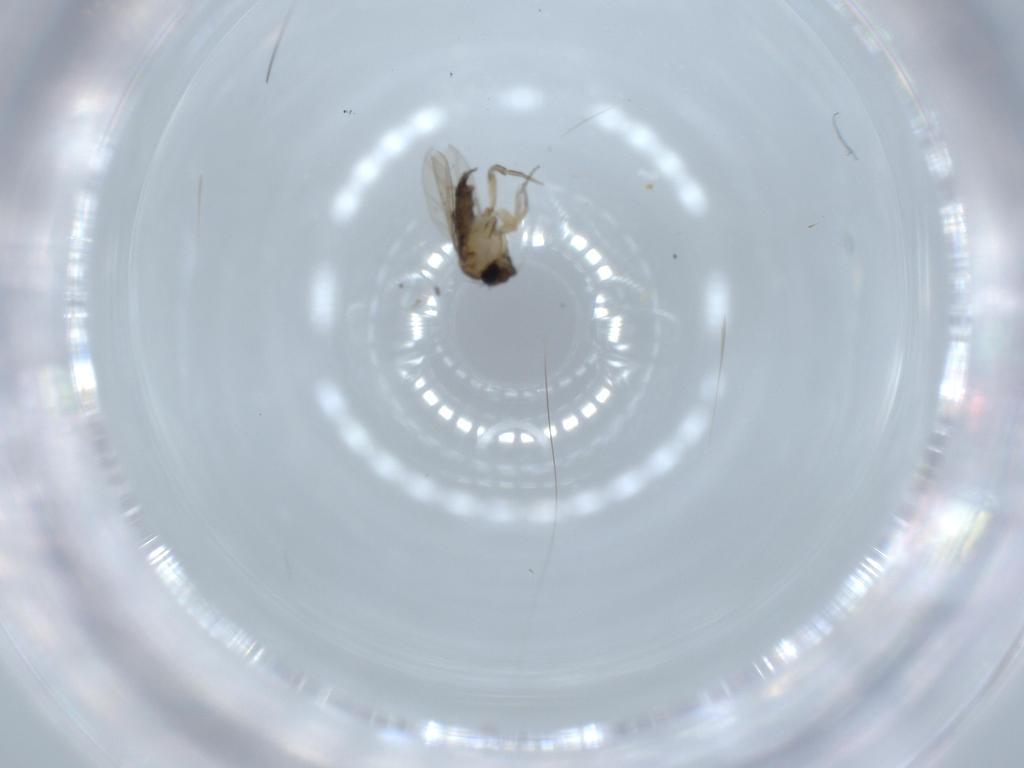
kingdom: Animalia
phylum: Arthropoda
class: Insecta
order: Diptera
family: Phoridae
